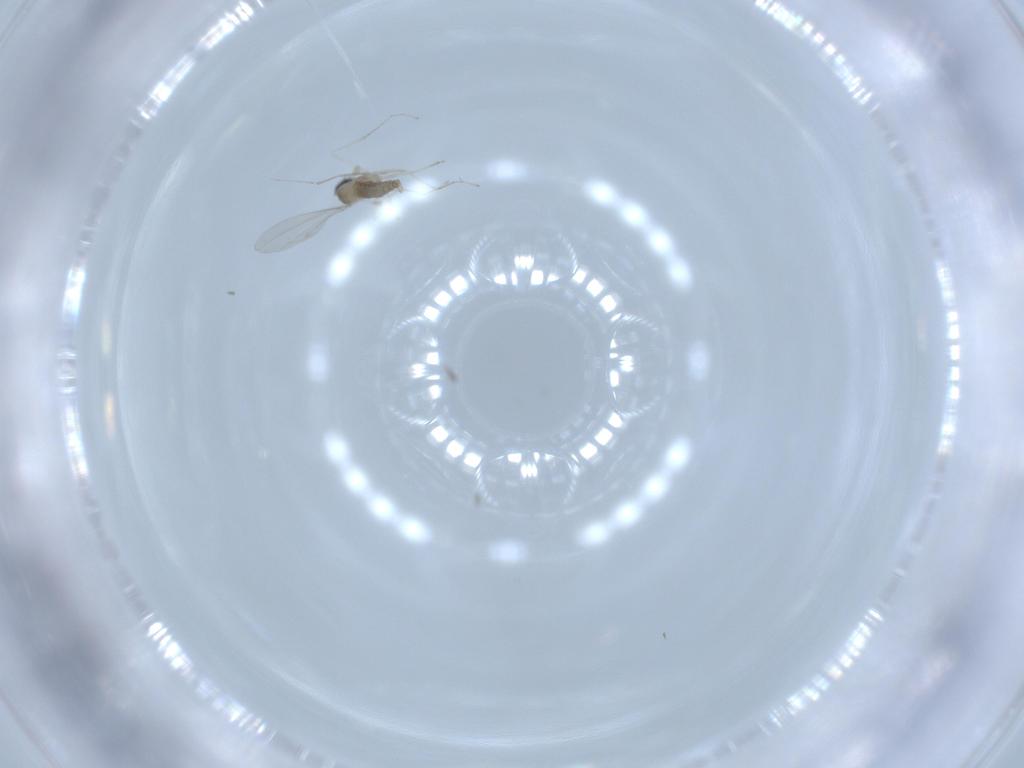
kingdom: Animalia
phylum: Arthropoda
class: Insecta
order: Diptera
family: Cecidomyiidae
